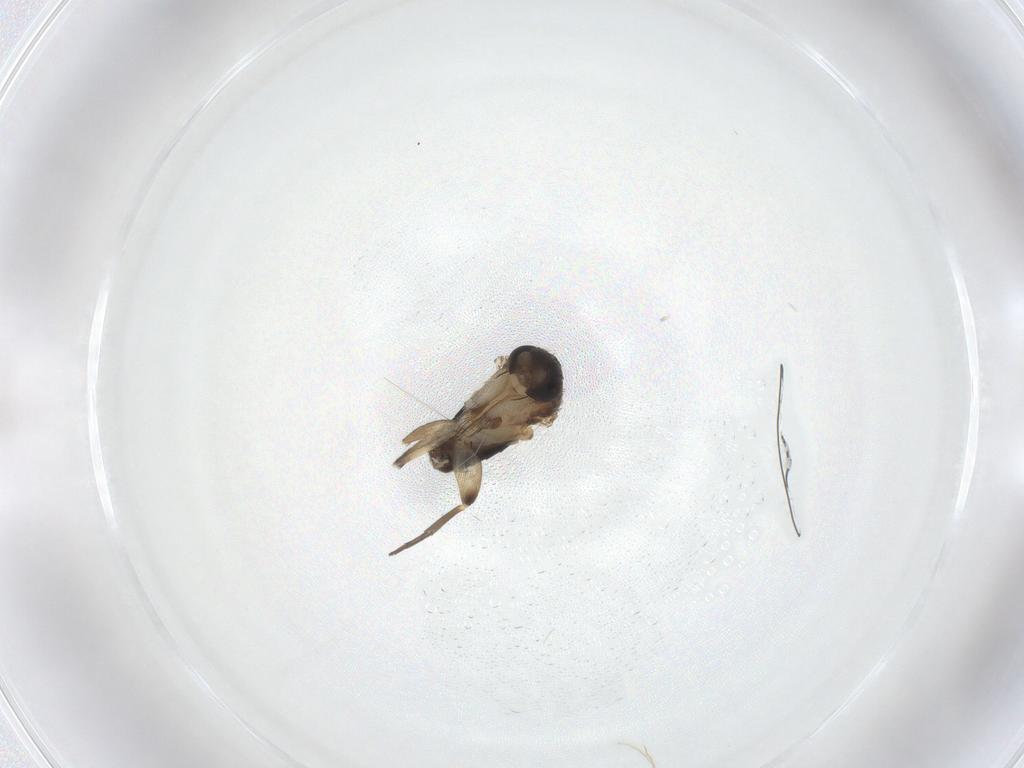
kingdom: Animalia
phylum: Arthropoda
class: Insecta
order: Diptera
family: Phoridae
